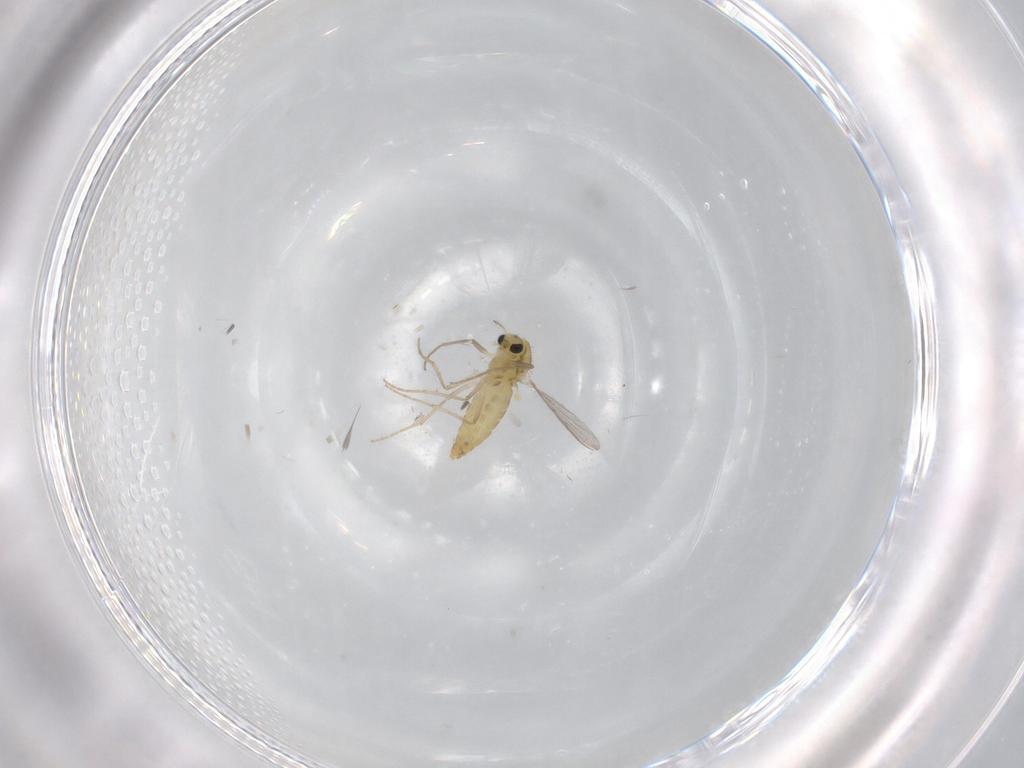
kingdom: Animalia
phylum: Arthropoda
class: Insecta
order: Diptera
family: Chironomidae
